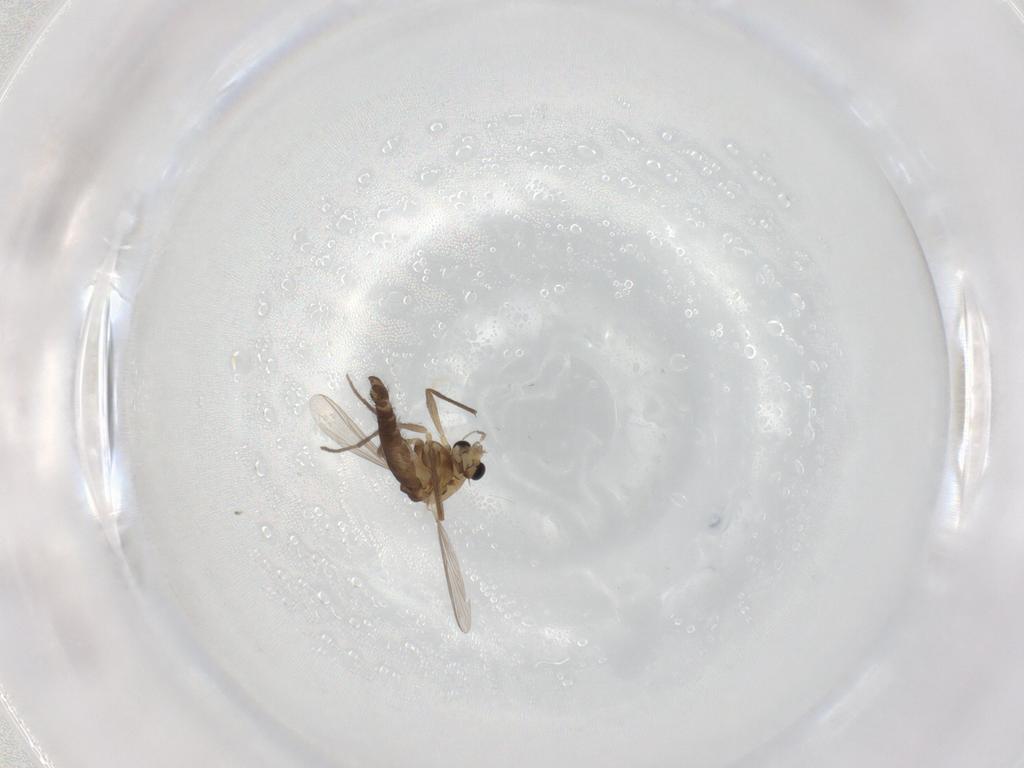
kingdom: Animalia
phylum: Arthropoda
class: Insecta
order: Diptera
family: Chironomidae
